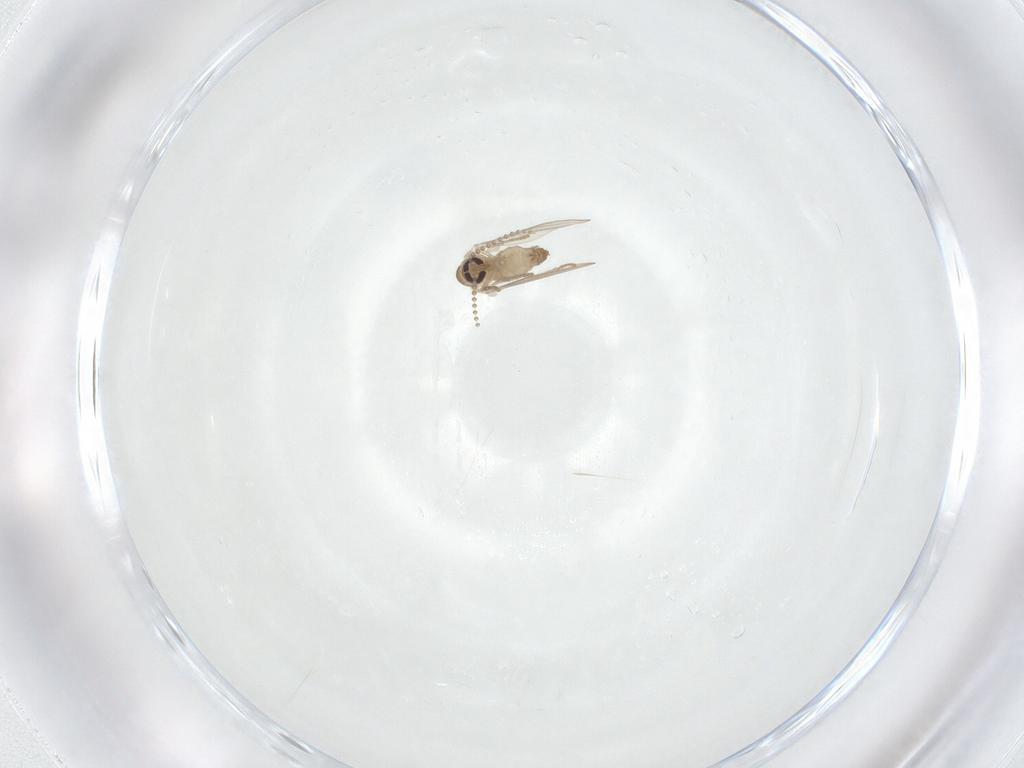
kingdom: Animalia
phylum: Arthropoda
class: Insecta
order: Diptera
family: Psychodidae
